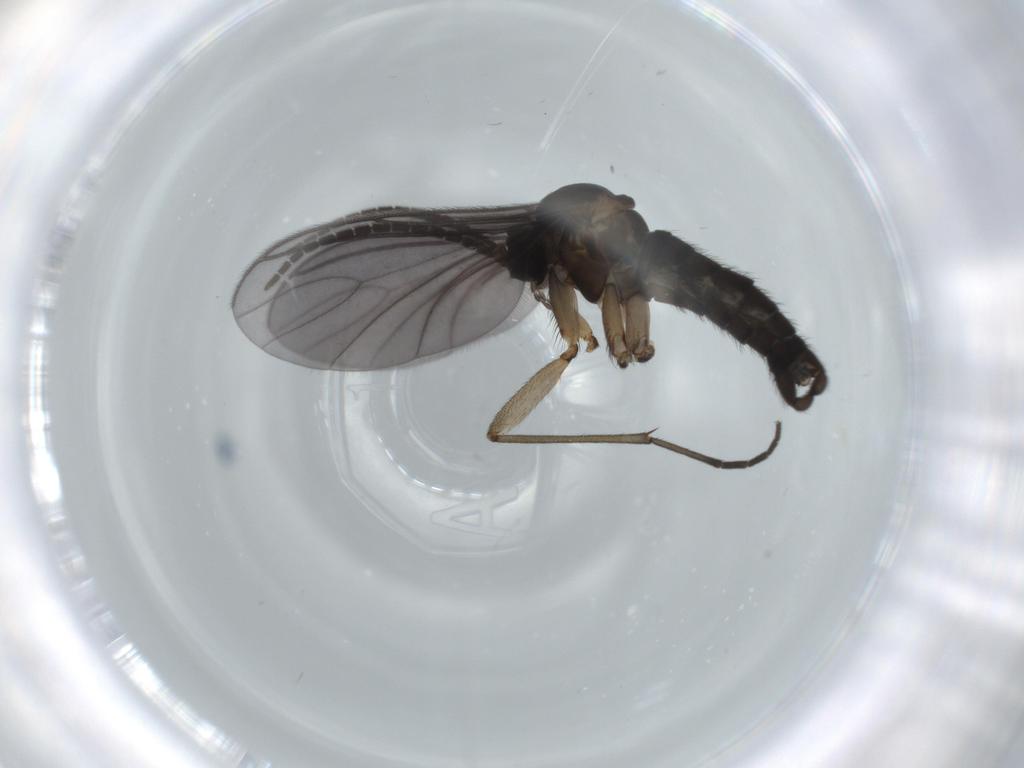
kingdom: Animalia
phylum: Arthropoda
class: Insecta
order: Diptera
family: Sciaridae
